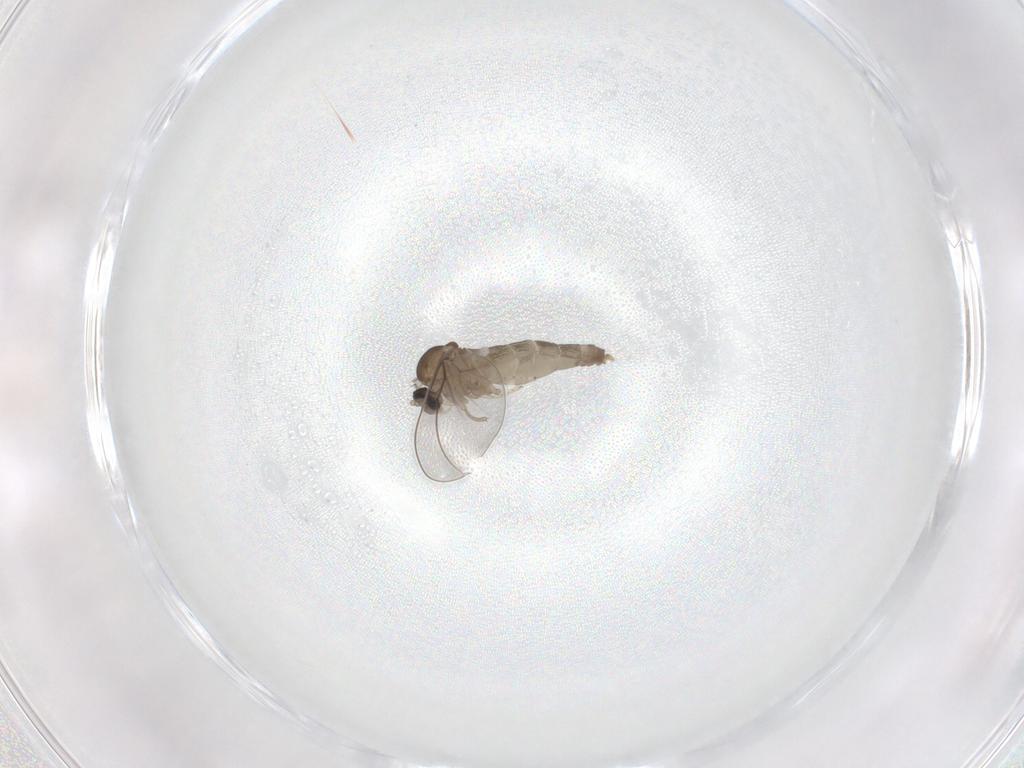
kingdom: Animalia
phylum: Arthropoda
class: Insecta
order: Diptera
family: Cecidomyiidae
